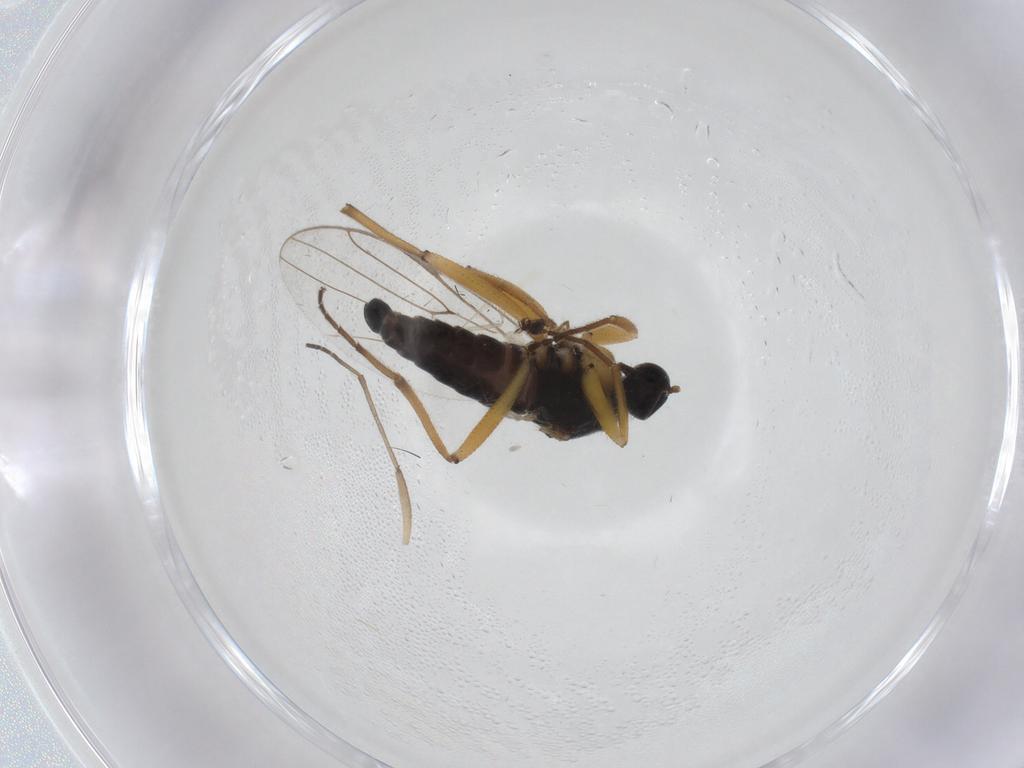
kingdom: Animalia
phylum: Arthropoda
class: Insecta
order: Diptera
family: Hybotidae
